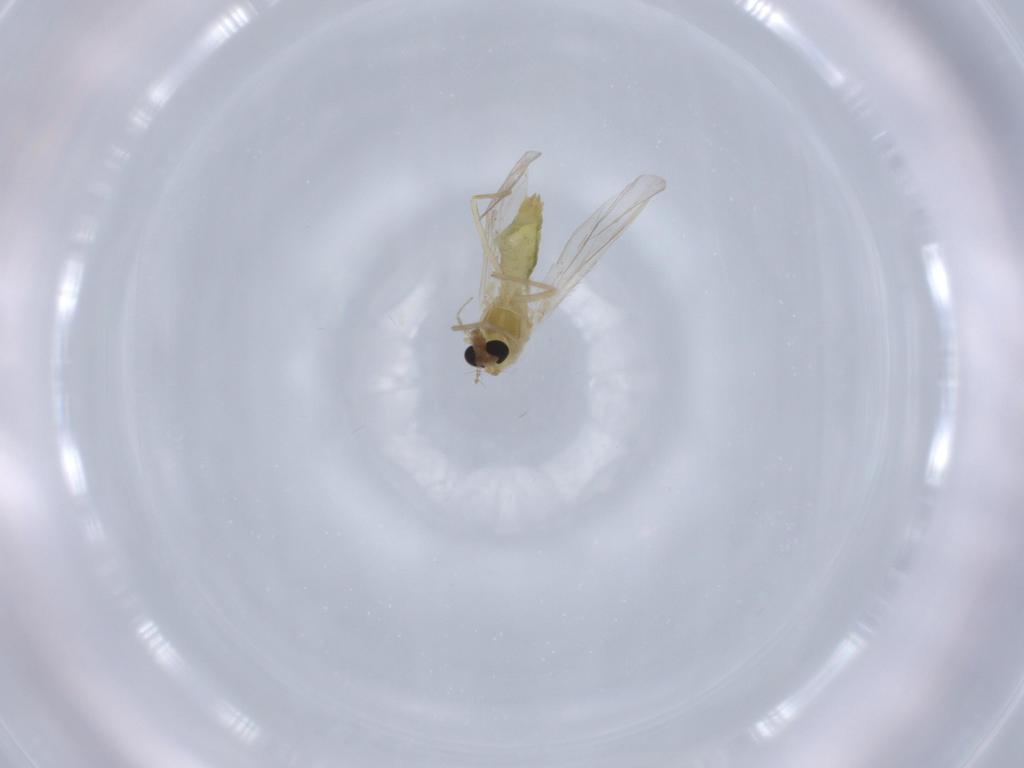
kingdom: Animalia
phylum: Arthropoda
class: Insecta
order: Diptera
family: Chironomidae
